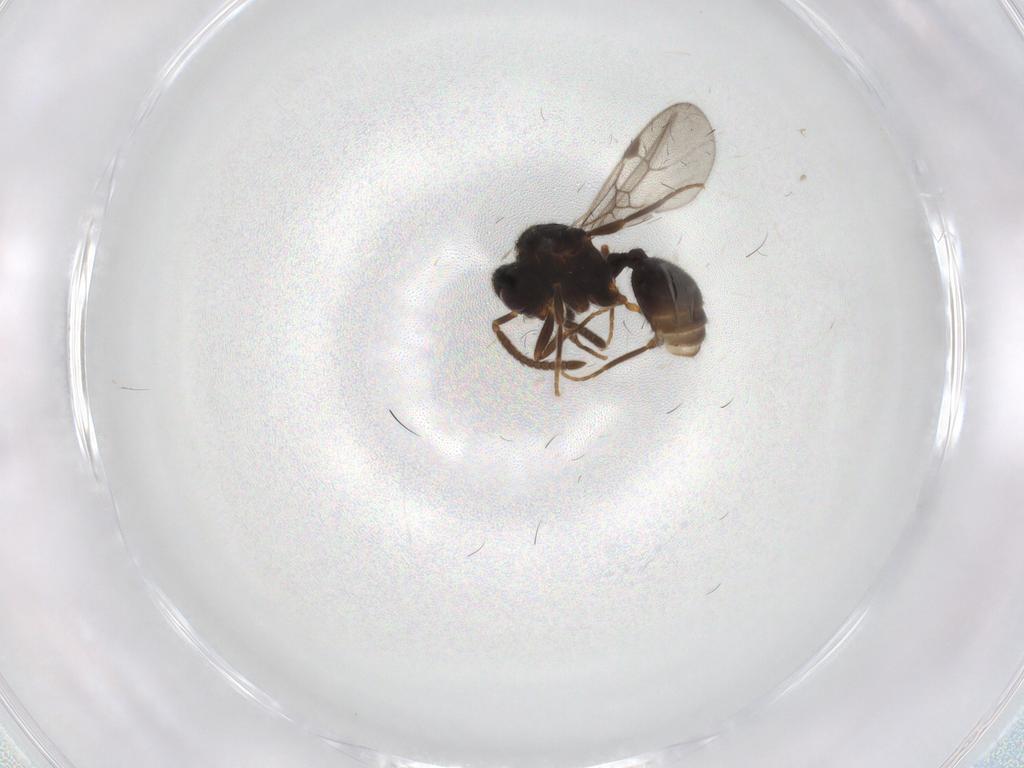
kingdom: Animalia
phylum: Arthropoda
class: Insecta
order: Hymenoptera
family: Formicidae
